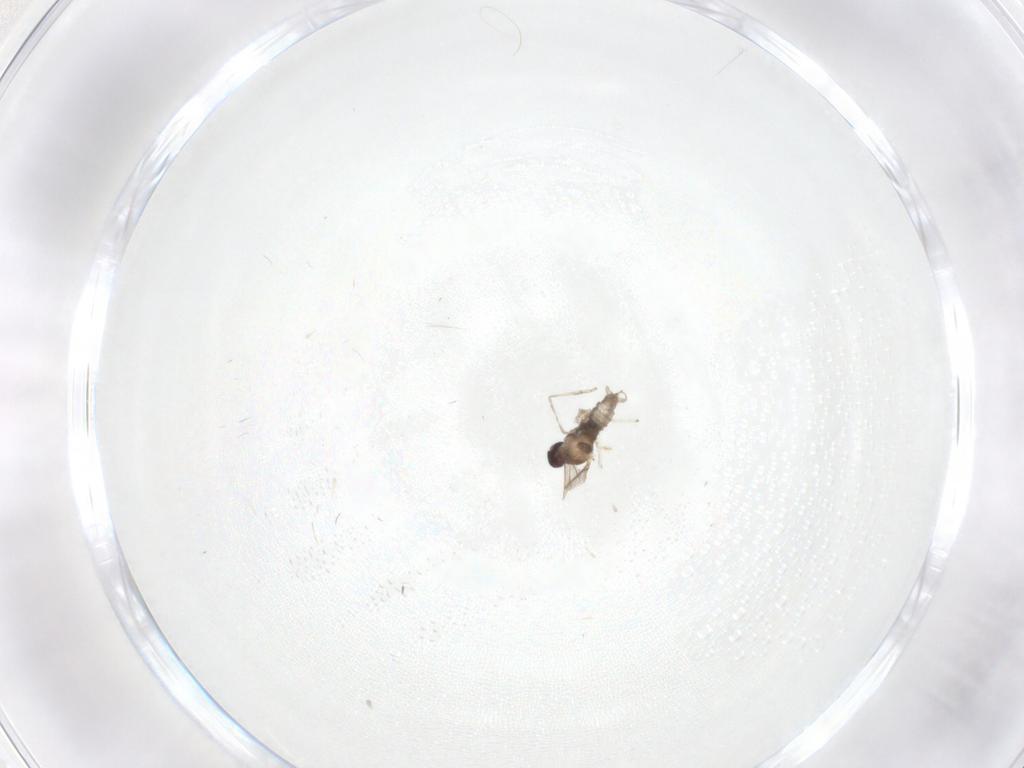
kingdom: Animalia
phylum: Arthropoda
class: Insecta
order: Diptera
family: Cecidomyiidae
